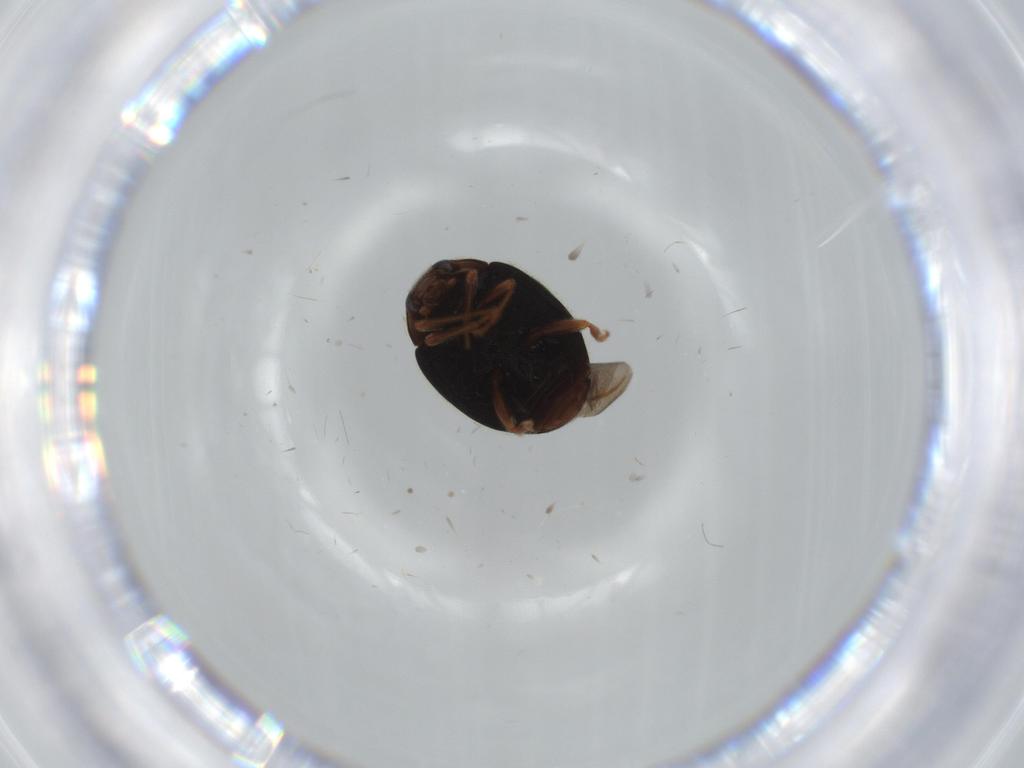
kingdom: Animalia
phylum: Arthropoda
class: Insecta
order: Coleoptera
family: Coccinellidae
